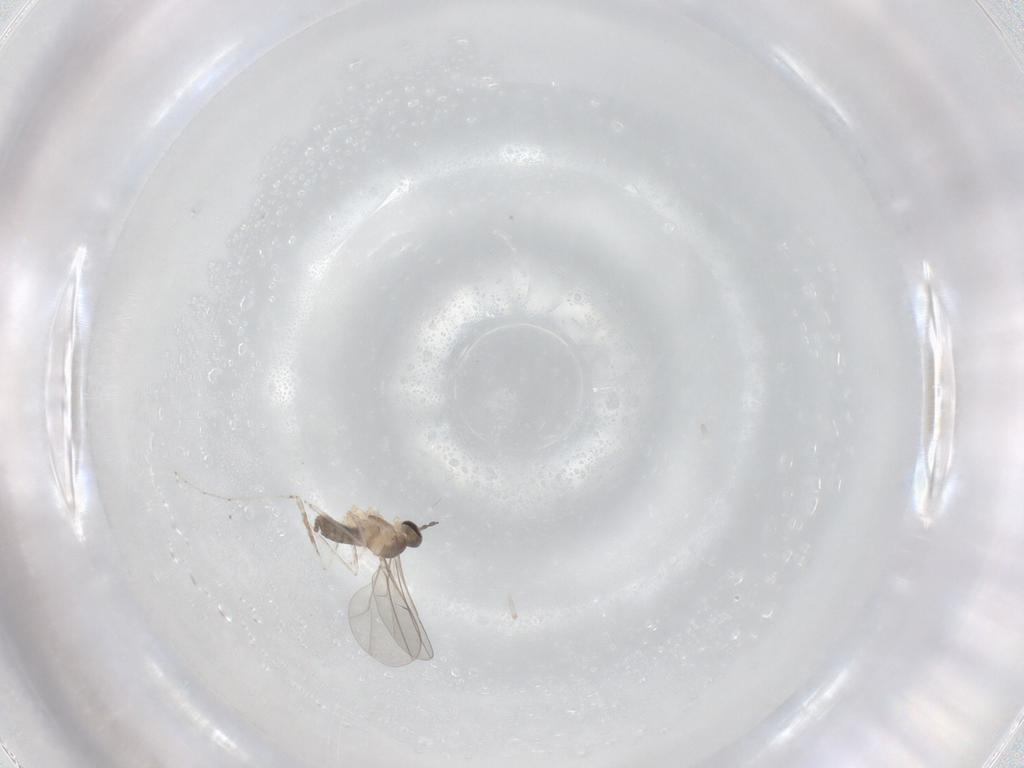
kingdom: Animalia
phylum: Arthropoda
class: Insecta
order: Diptera
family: Cecidomyiidae
